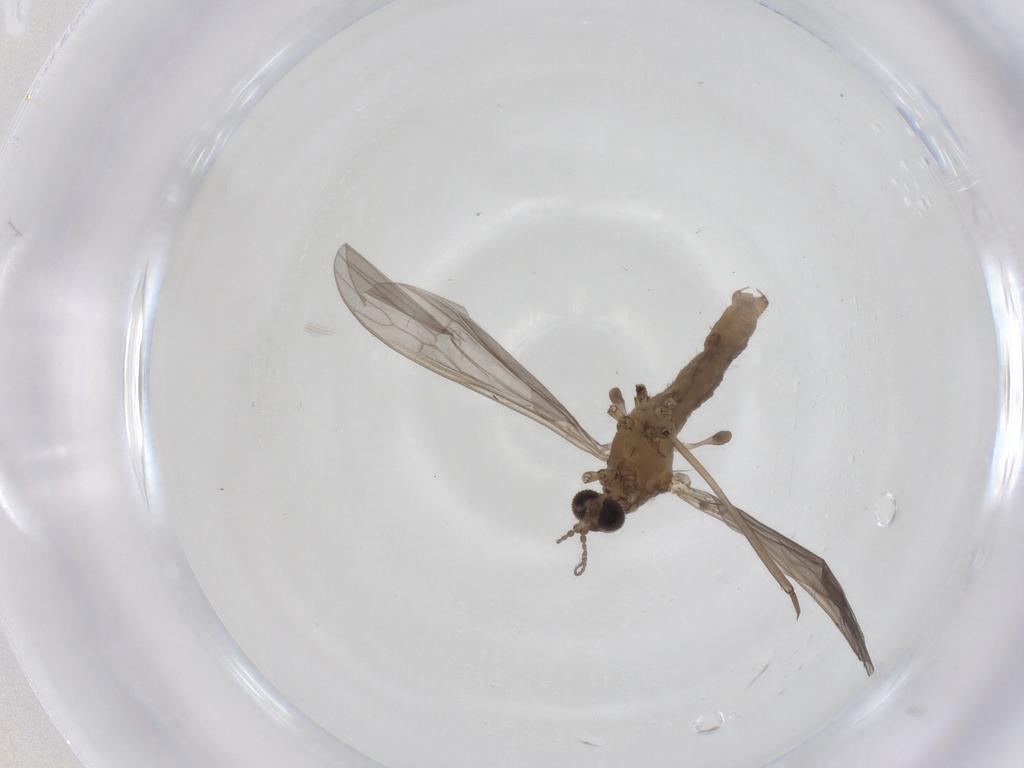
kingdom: Animalia
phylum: Arthropoda
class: Insecta
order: Diptera
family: Limoniidae
